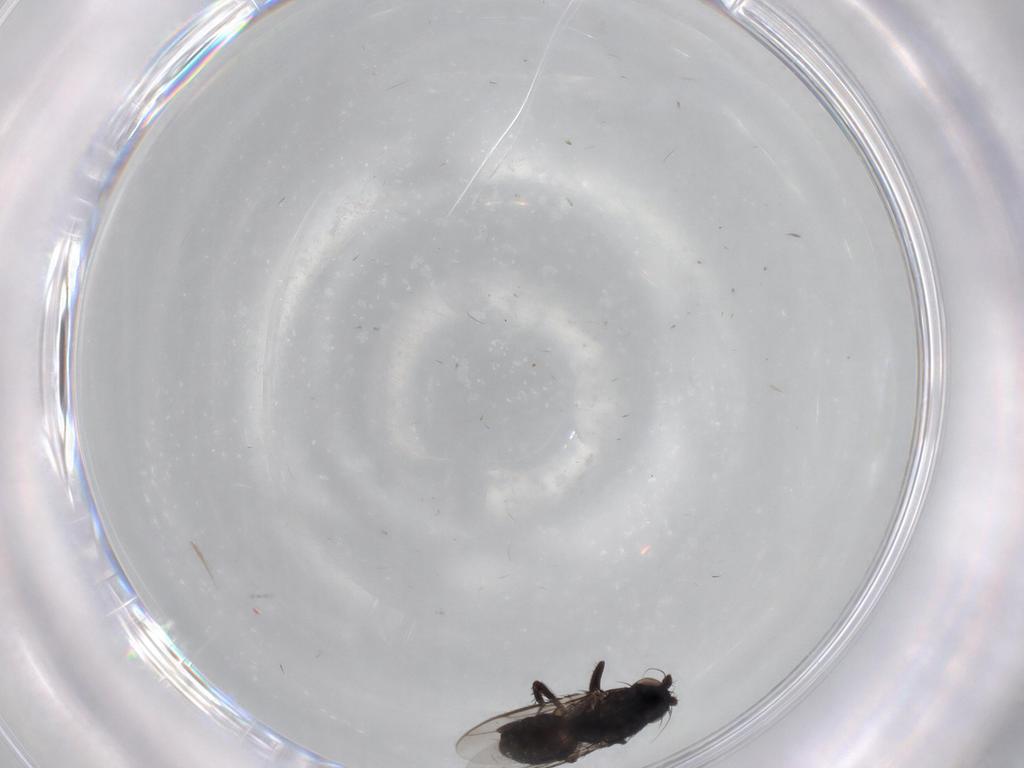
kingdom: Animalia
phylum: Arthropoda
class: Insecta
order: Diptera
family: Sphaeroceridae
